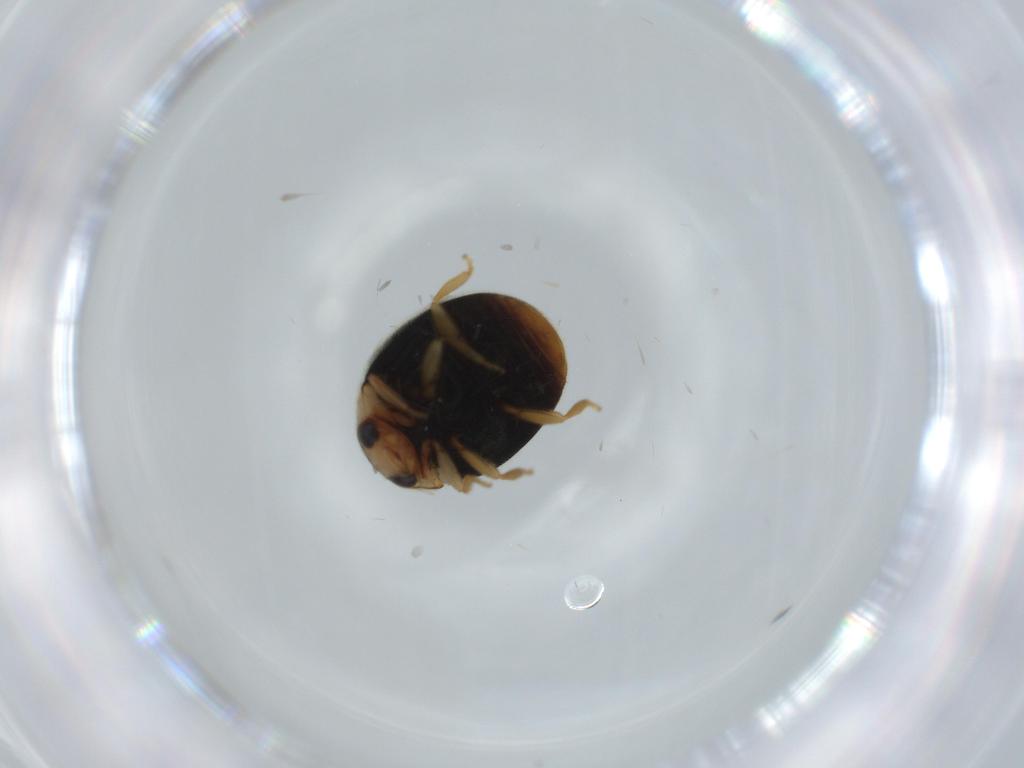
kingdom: Animalia
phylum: Arthropoda
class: Insecta
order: Coleoptera
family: Coccinellidae
